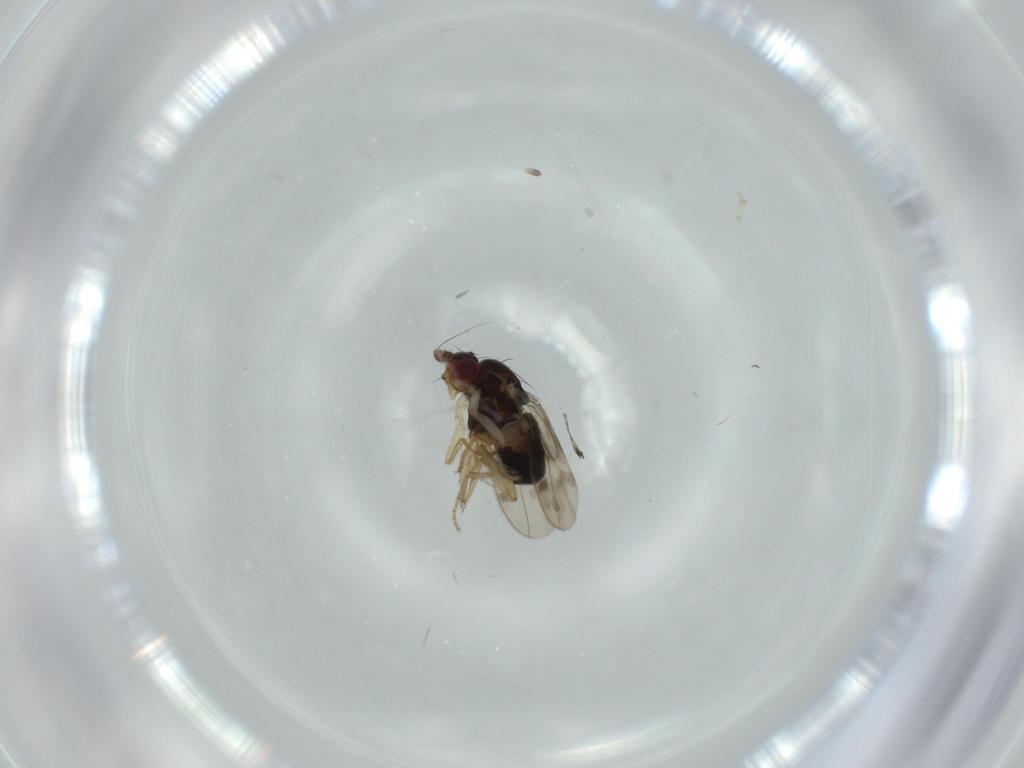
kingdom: Animalia
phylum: Arthropoda
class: Insecta
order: Diptera
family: Sphaeroceridae
